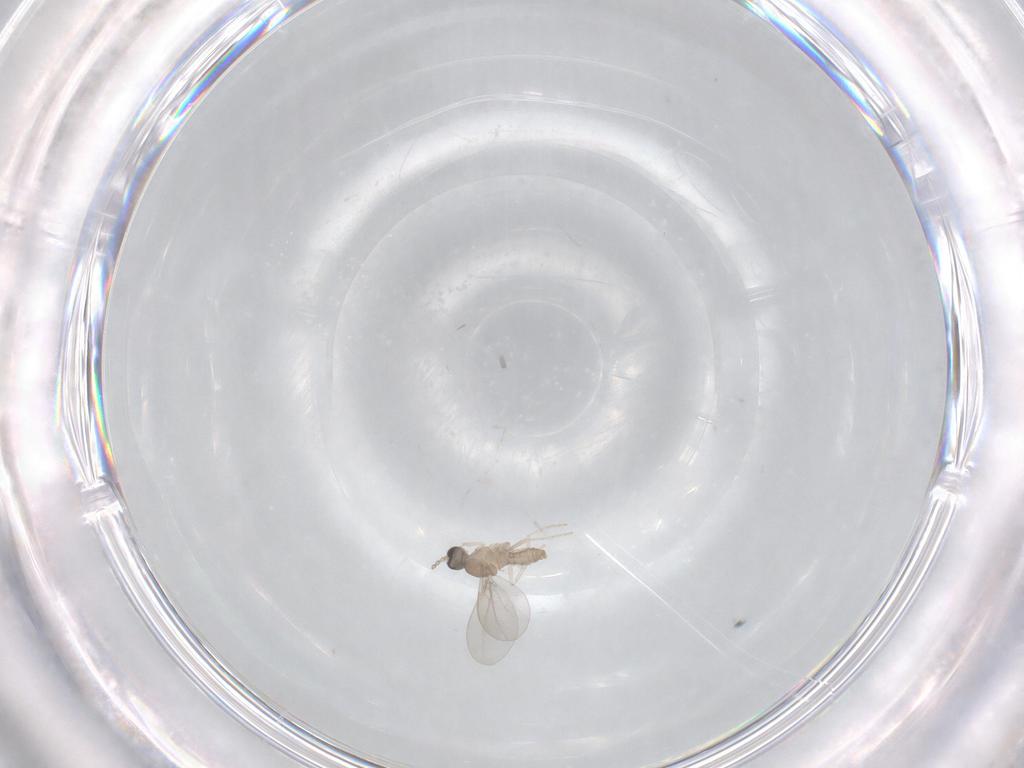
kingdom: Animalia
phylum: Arthropoda
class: Insecta
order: Diptera
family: Cecidomyiidae
